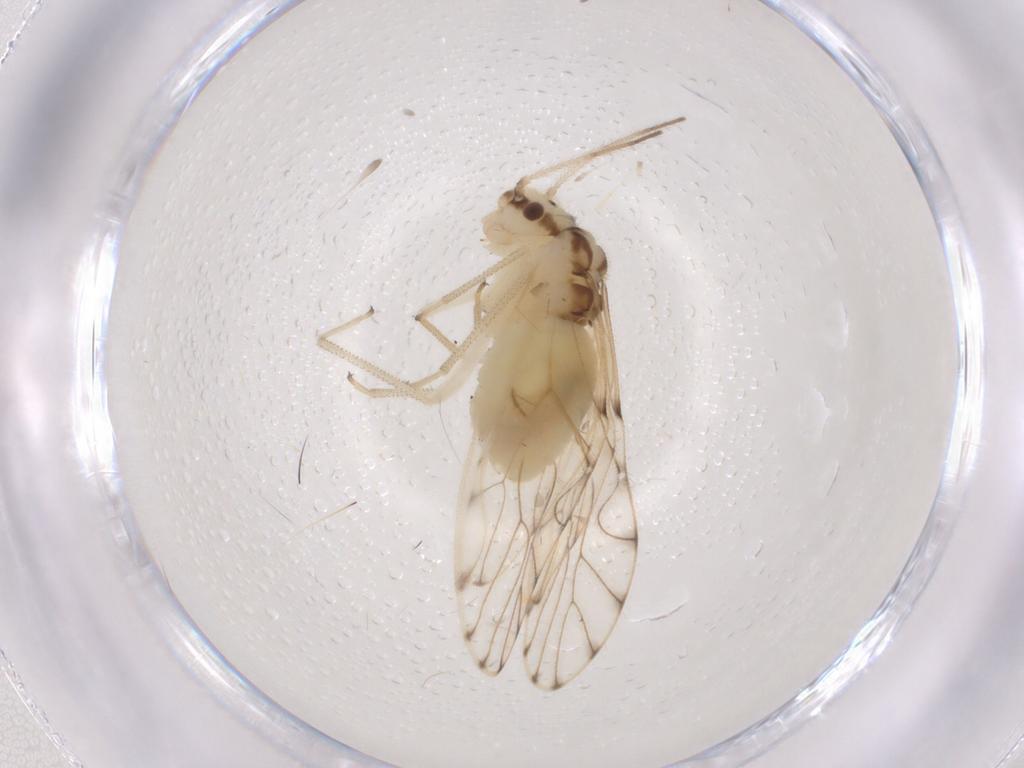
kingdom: Animalia
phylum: Arthropoda
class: Insecta
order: Psocodea
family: Philotarsidae
